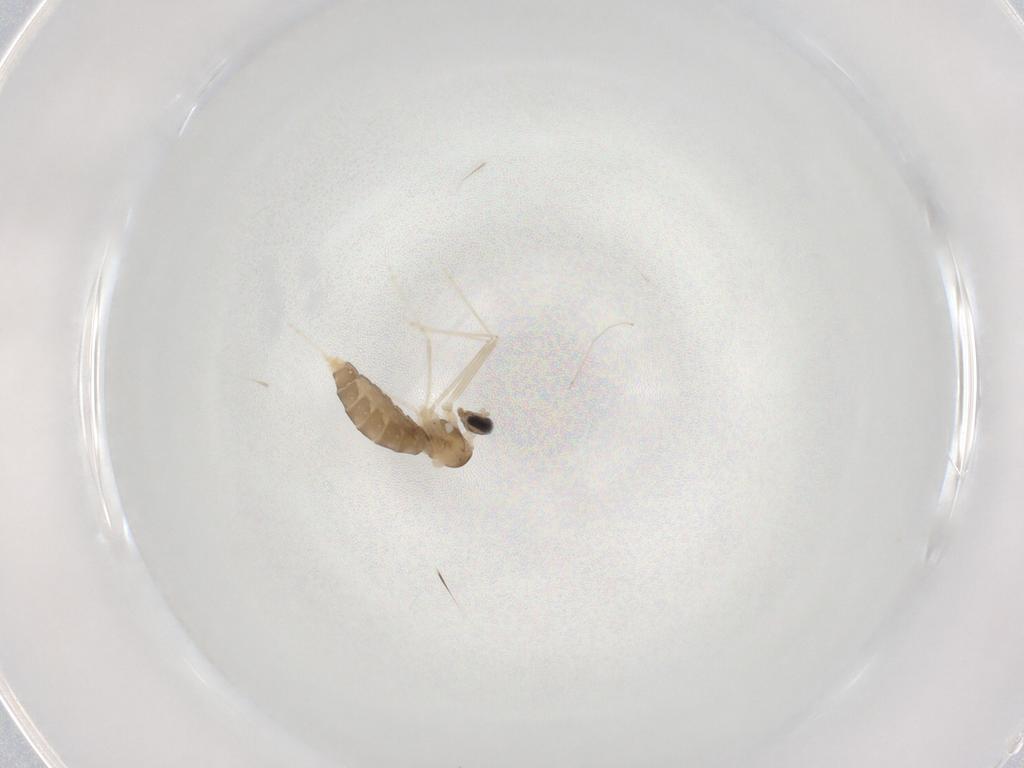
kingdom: Animalia
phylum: Arthropoda
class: Insecta
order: Diptera
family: Cecidomyiidae
